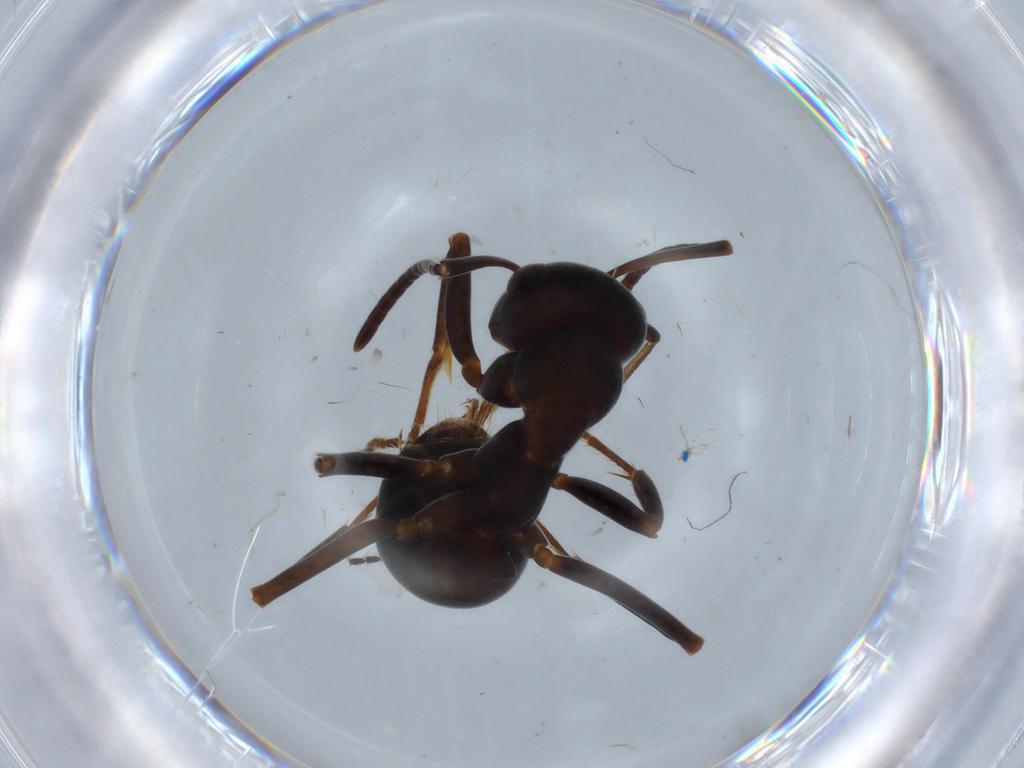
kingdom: Animalia
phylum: Arthropoda
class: Insecta
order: Hymenoptera
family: Formicidae
